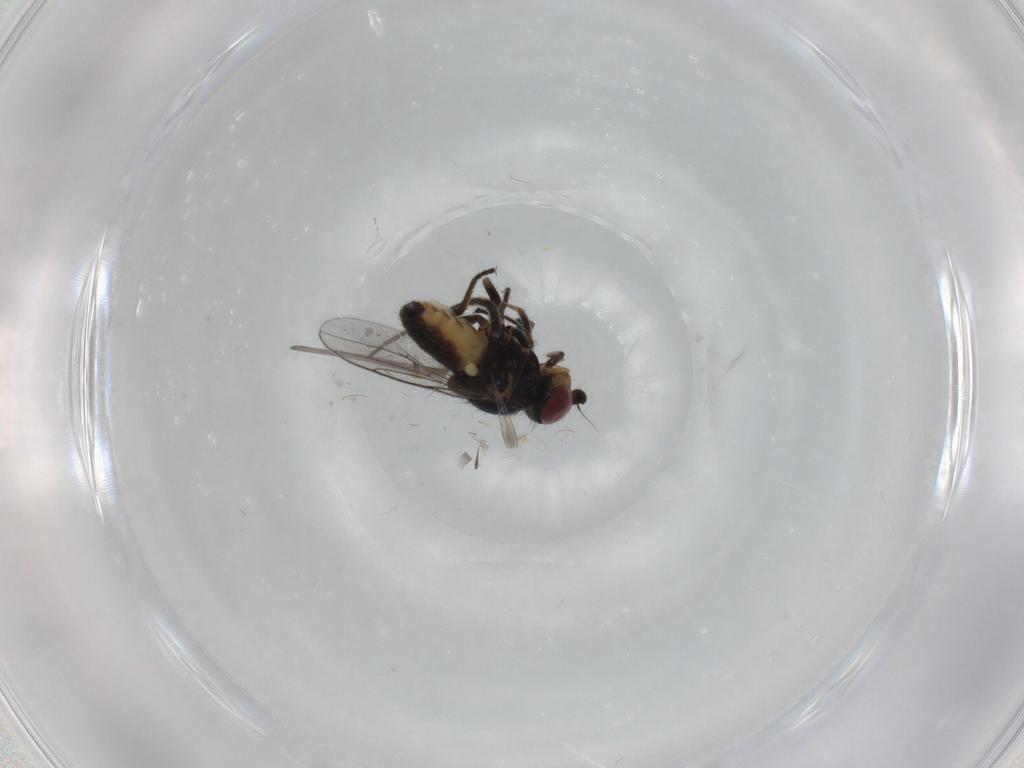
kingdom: Animalia
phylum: Arthropoda
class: Insecta
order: Diptera
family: Chloropidae
